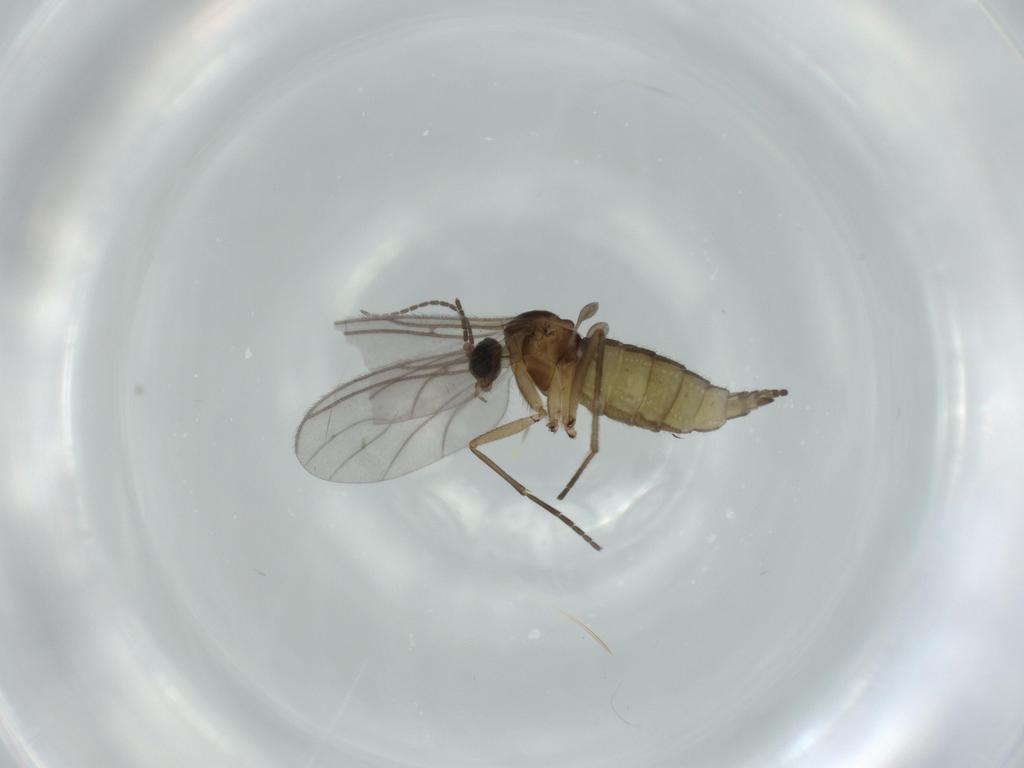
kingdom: Animalia
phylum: Arthropoda
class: Insecta
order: Diptera
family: Sciaridae
